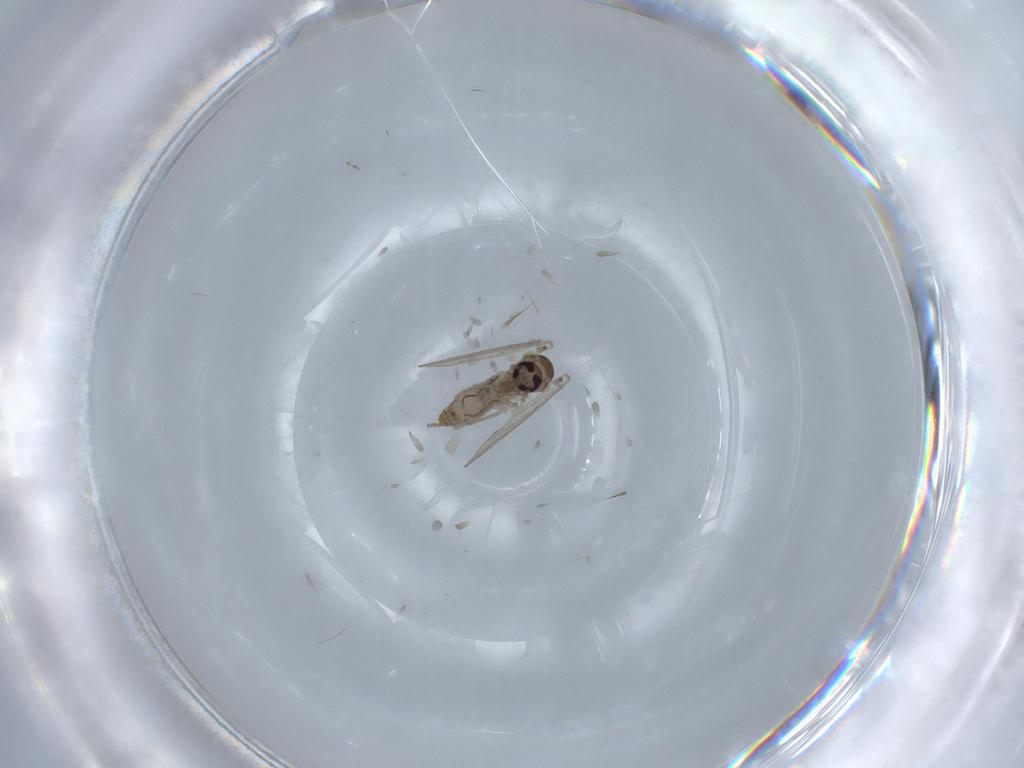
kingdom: Animalia
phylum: Arthropoda
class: Insecta
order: Diptera
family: Psychodidae
